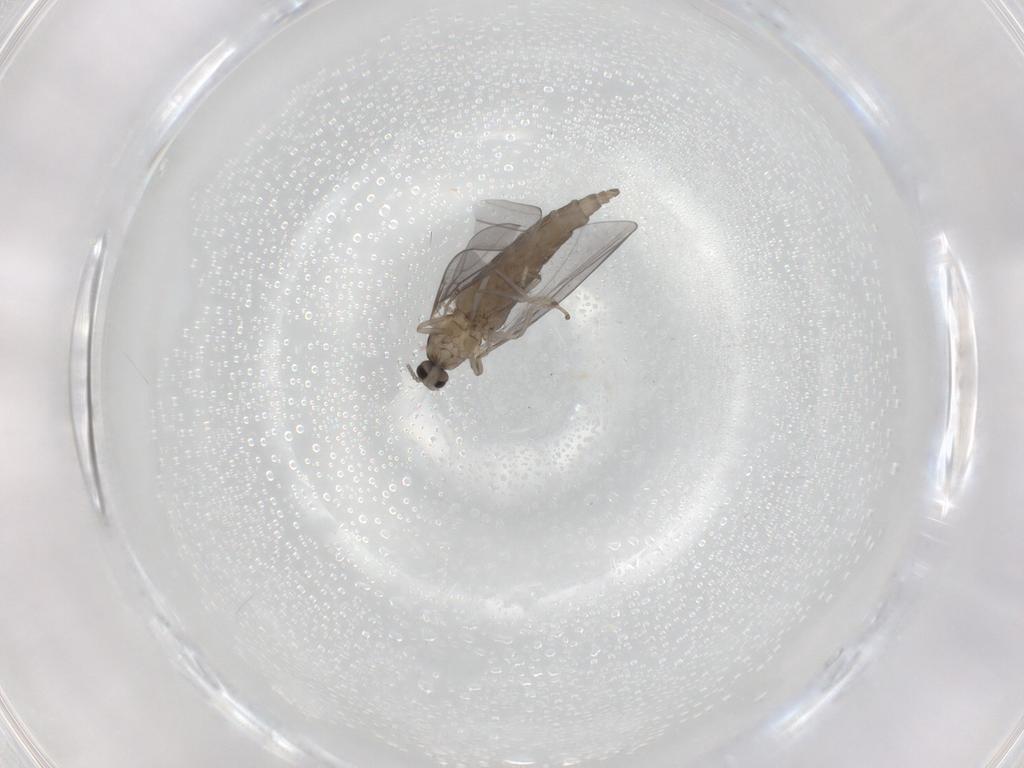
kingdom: Animalia
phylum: Arthropoda
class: Insecta
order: Diptera
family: Chironomidae
